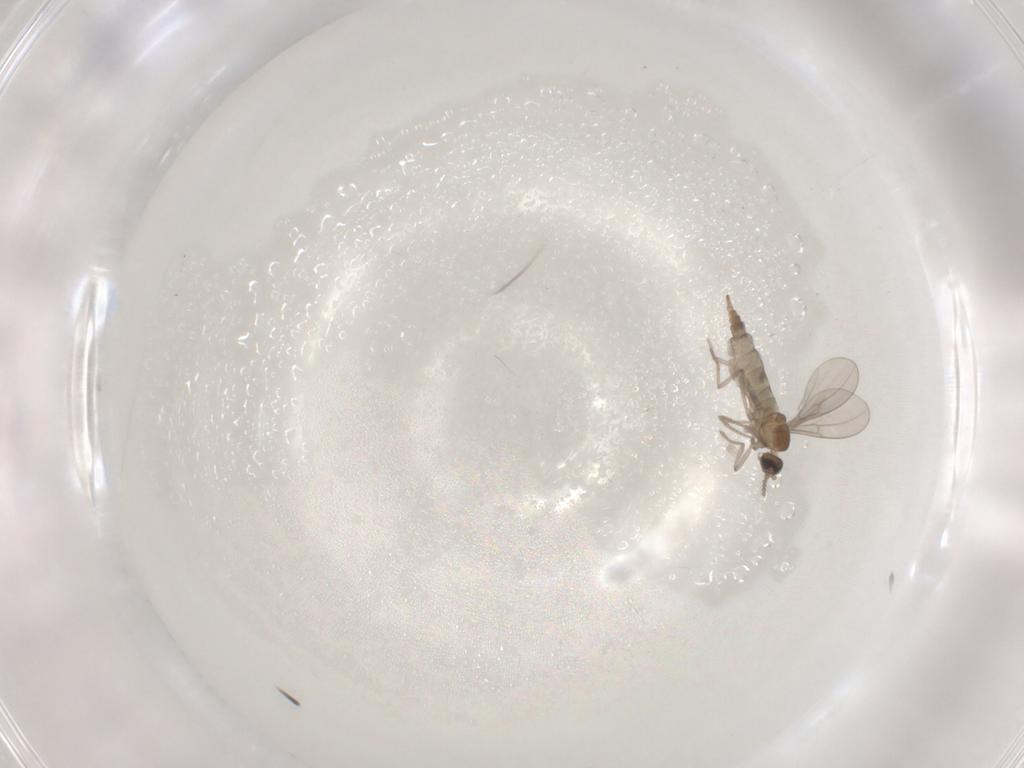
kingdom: Animalia
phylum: Arthropoda
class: Insecta
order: Diptera
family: Cecidomyiidae
